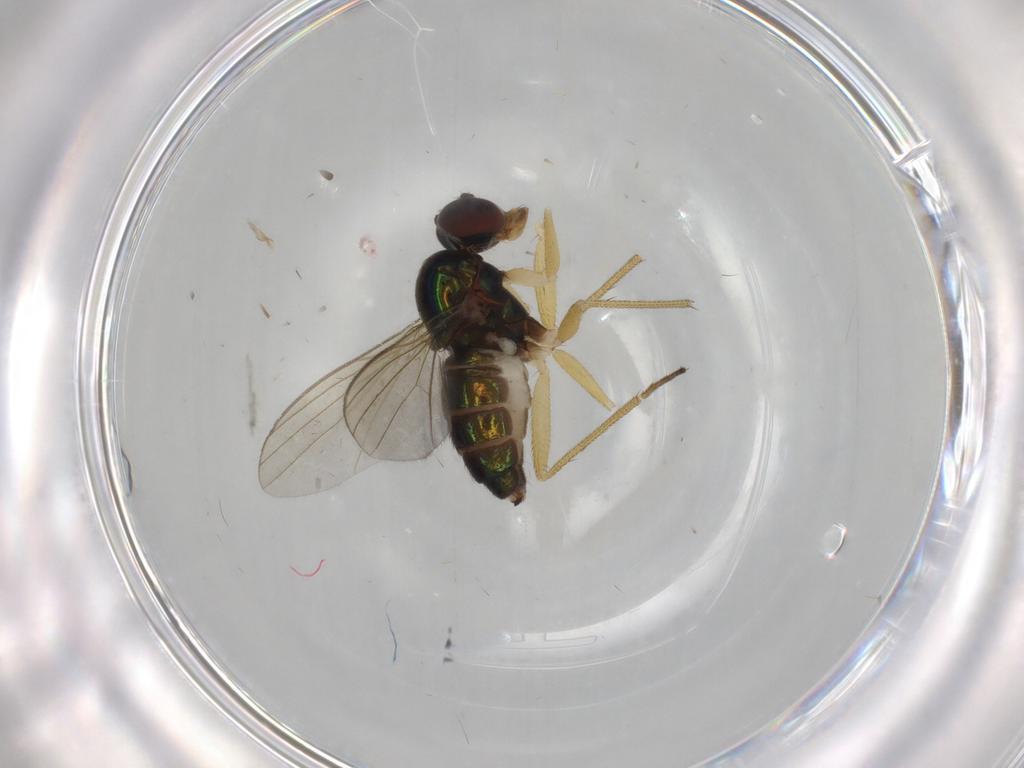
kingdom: Animalia
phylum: Arthropoda
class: Insecta
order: Diptera
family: Dolichopodidae
